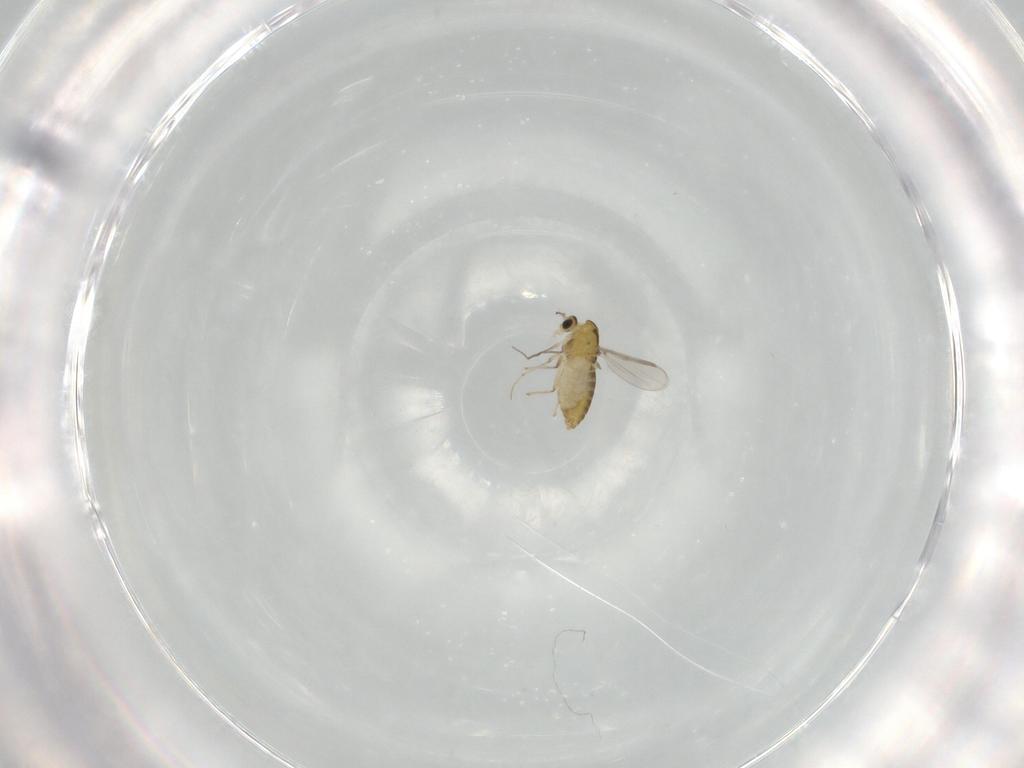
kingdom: Animalia
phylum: Arthropoda
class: Insecta
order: Diptera
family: Chironomidae
